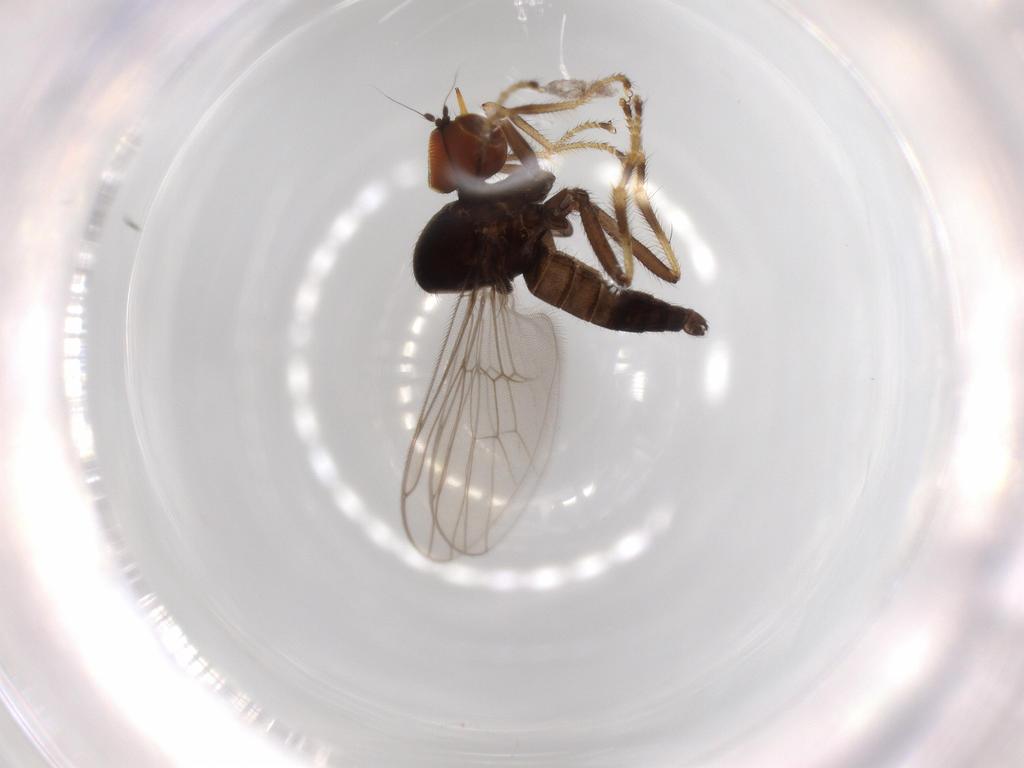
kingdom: Animalia
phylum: Arthropoda
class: Insecta
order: Diptera
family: Hybotidae
